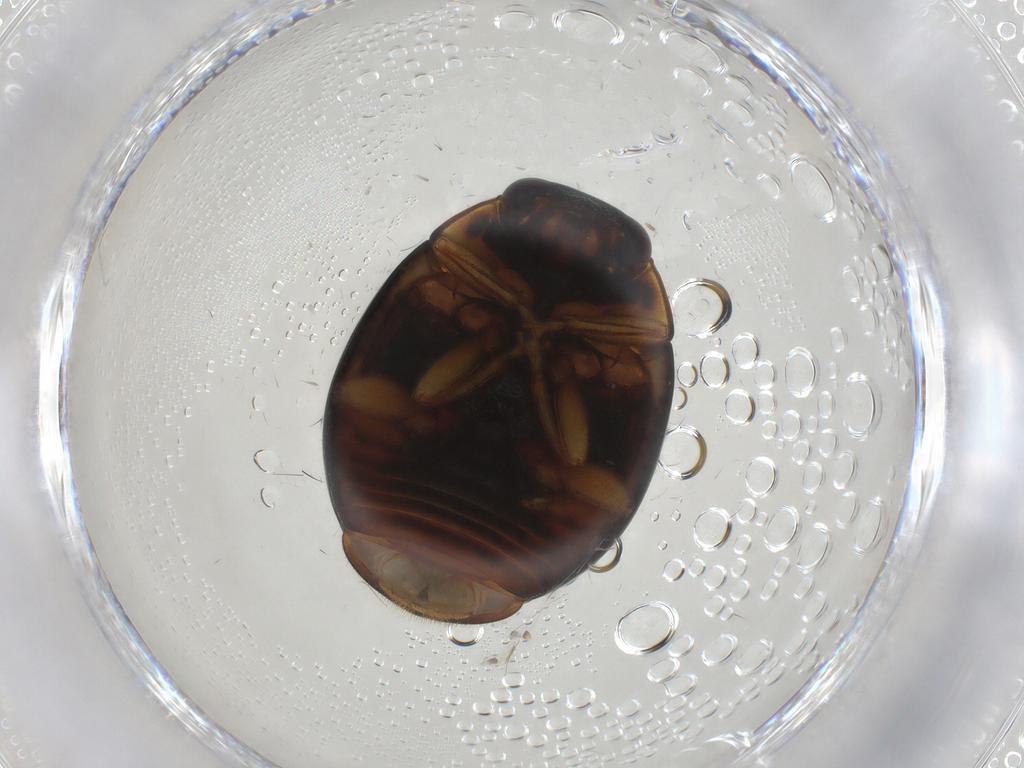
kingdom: Animalia
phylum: Arthropoda
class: Insecta
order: Coleoptera
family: Coccinellidae
